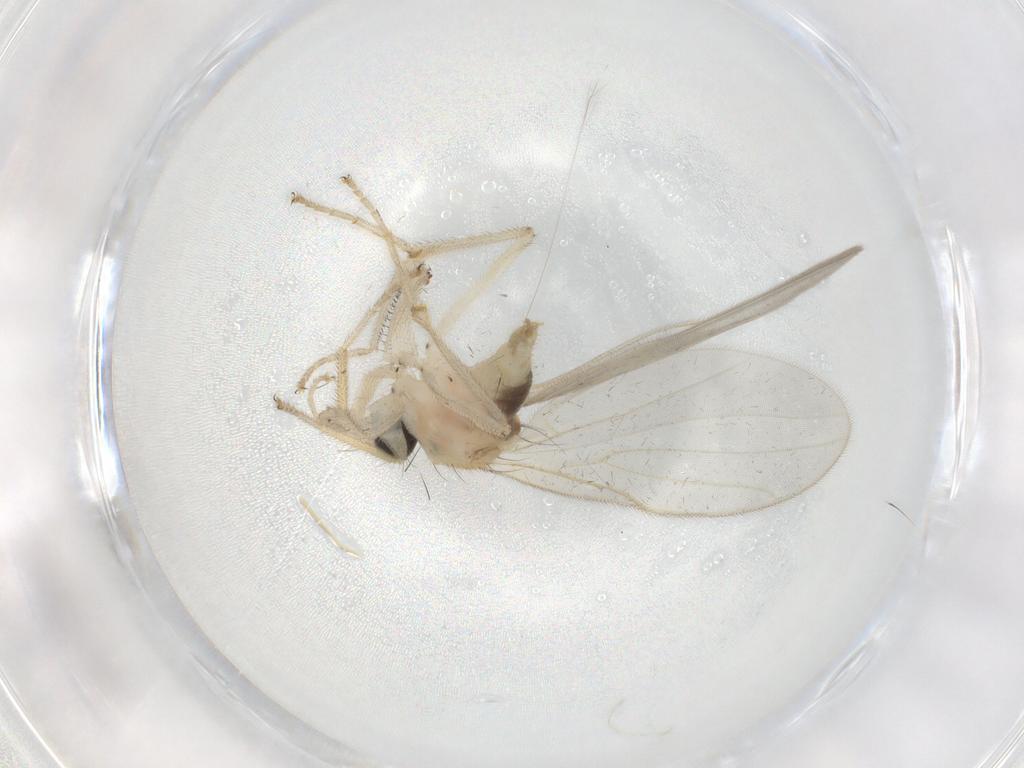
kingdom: Animalia
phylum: Arthropoda
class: Insecta
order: Diptera
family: Hybotidae
